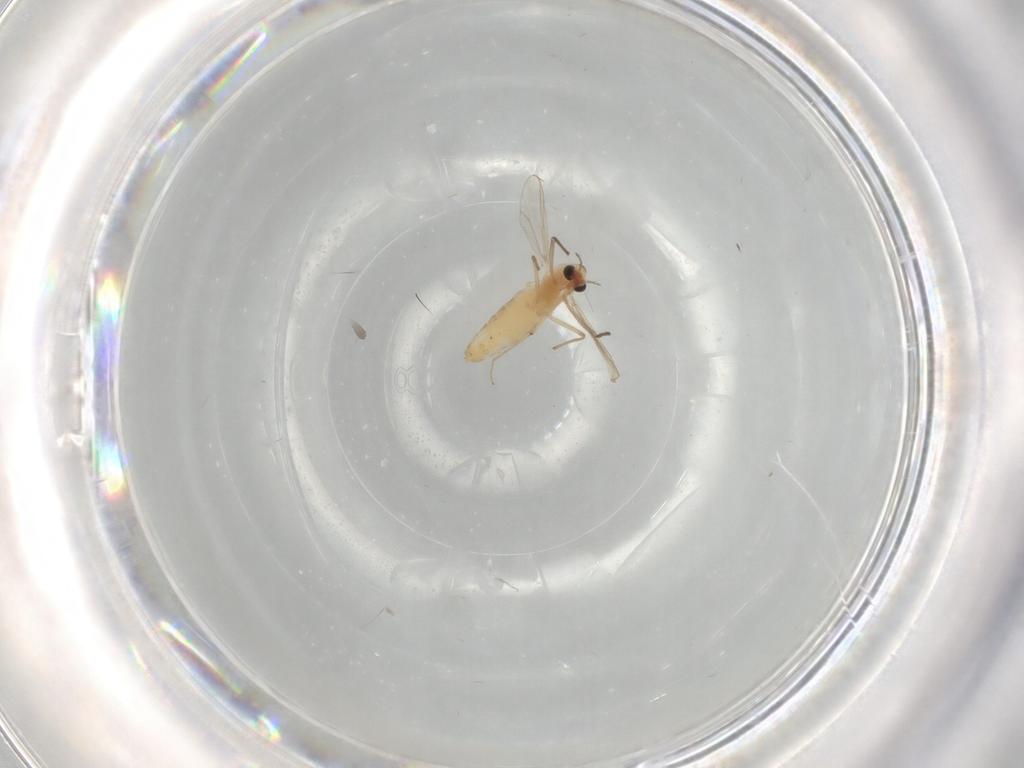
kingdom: Animalia
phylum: Arthropoda
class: Insecta
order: Diptera
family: Chironomidae
